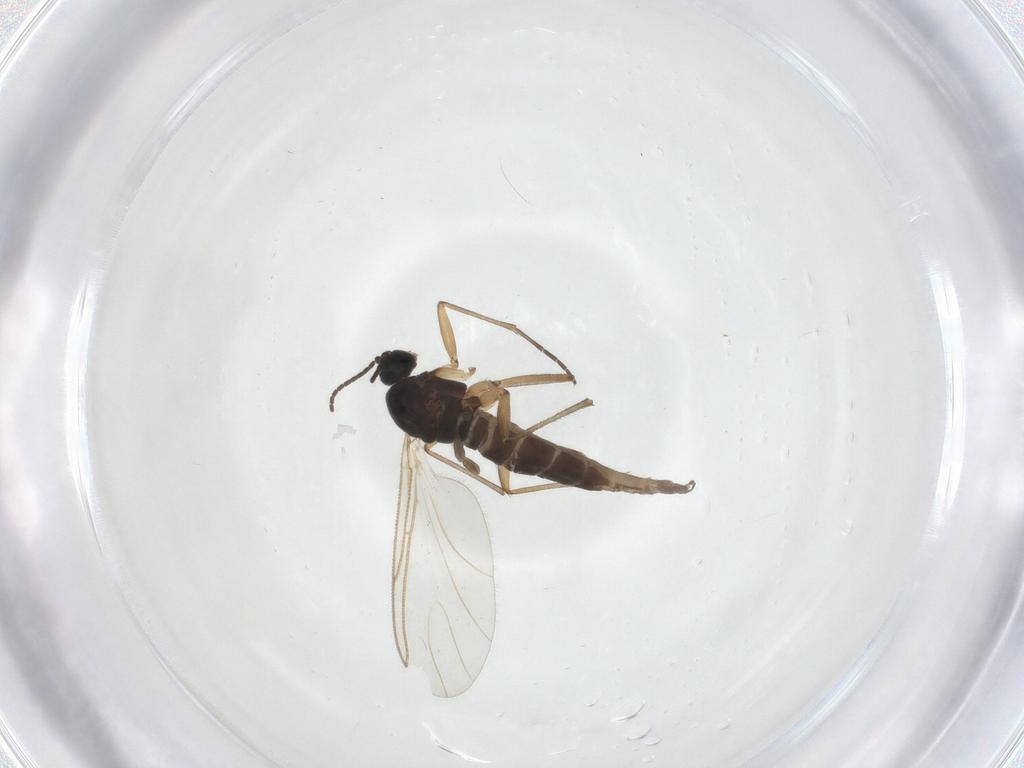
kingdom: Animalia
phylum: Arthropoda
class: Insecta
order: Diptera
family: Sciaridae
